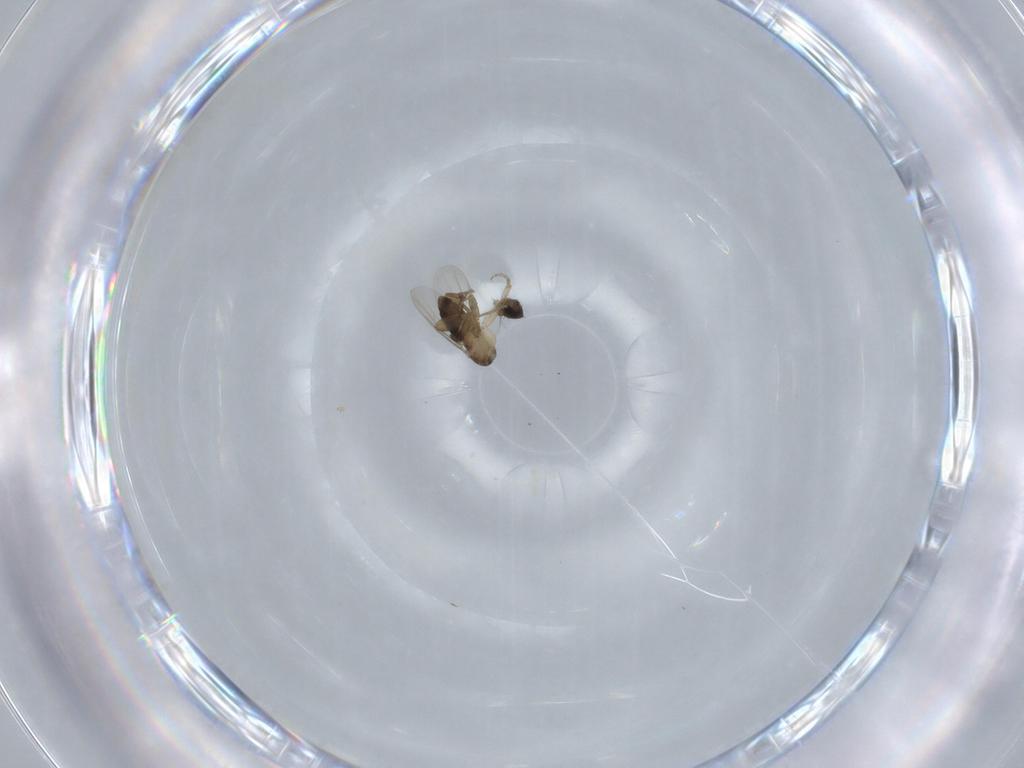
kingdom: Animalia
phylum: Arthropoda
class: Insecta
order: Diptera
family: Phoridae
